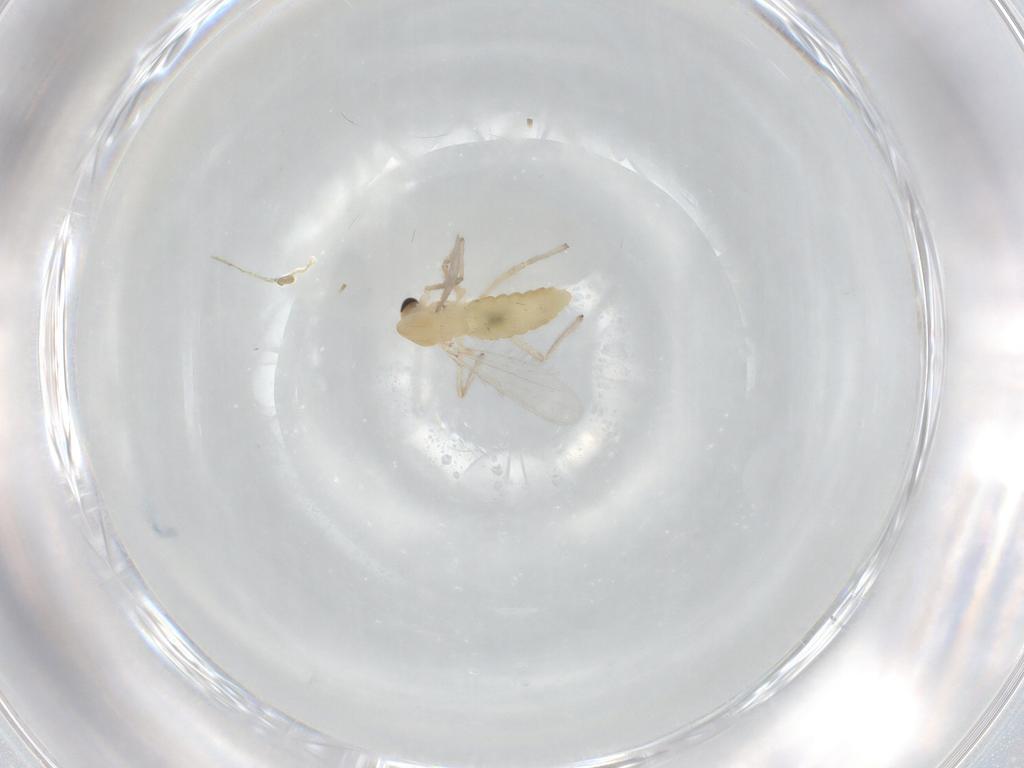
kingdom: Animalia
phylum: Arthropoda
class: Insecta
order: Diptera
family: Chironomidae
